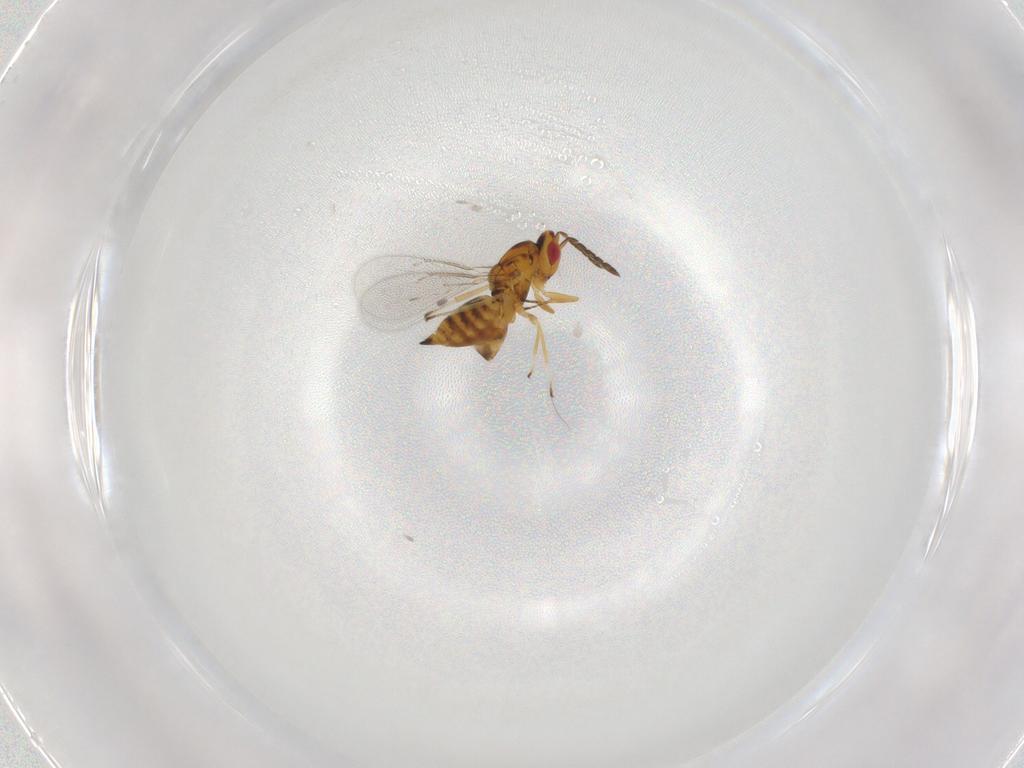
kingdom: Animalia
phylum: Arthropoda
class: Insecta
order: Hymenoptera
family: Eulophidae
